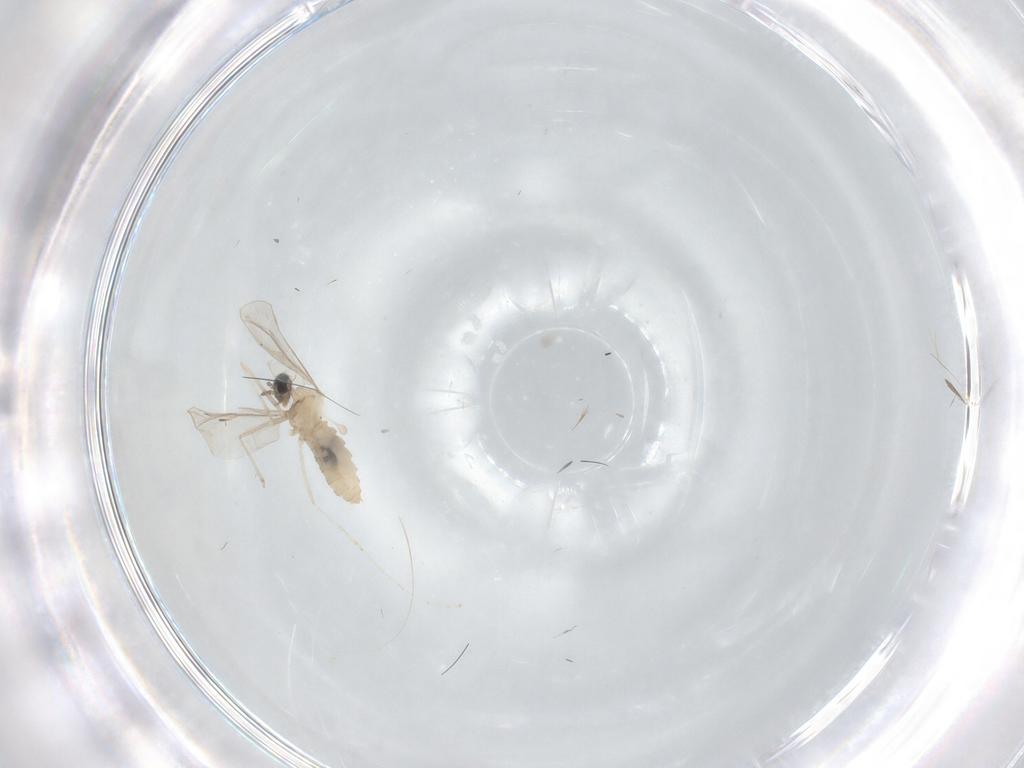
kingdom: Animalia
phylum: Arthropoda
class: Insecta
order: Diptera
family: Cecidomyiidae
